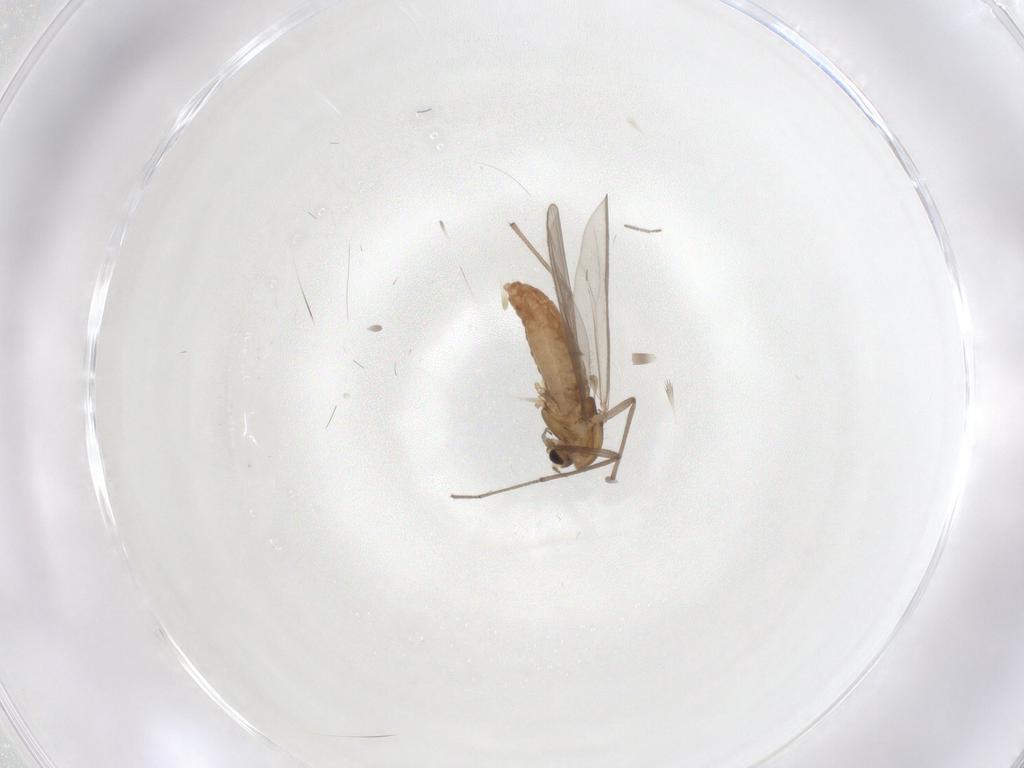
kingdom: Animalia
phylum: Arthropoda
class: Insecta
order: Diptera
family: Chironomidae
